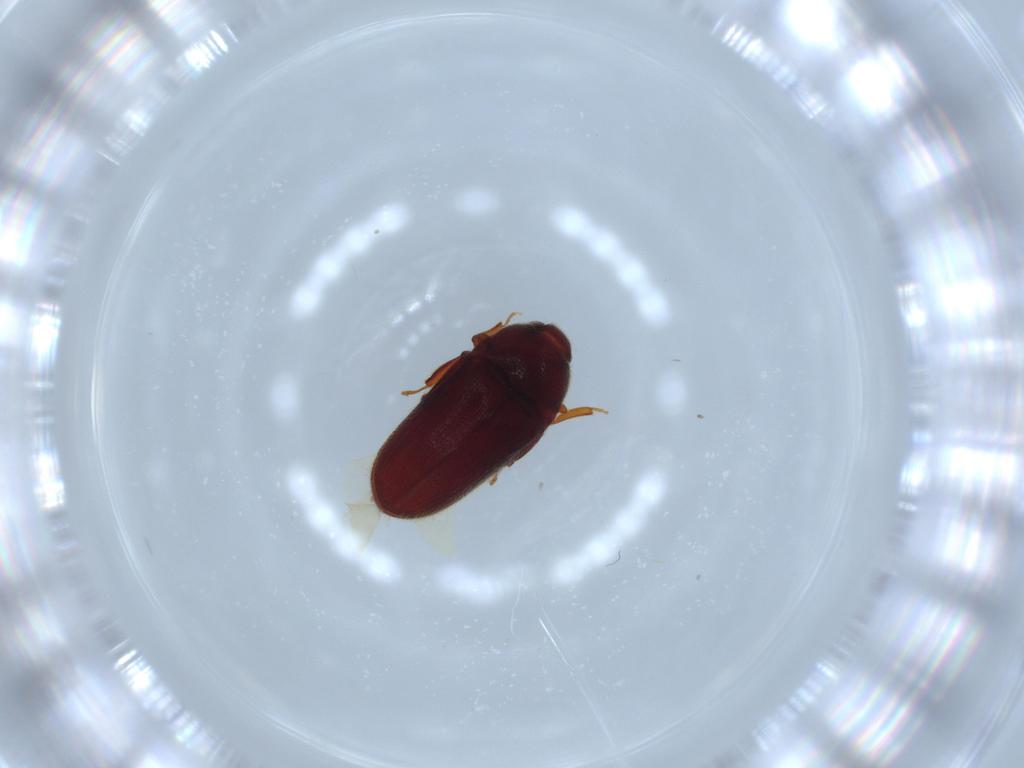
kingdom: Animalia
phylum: Arthropoda
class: Insecta
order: Coleoptera
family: Throscidae
